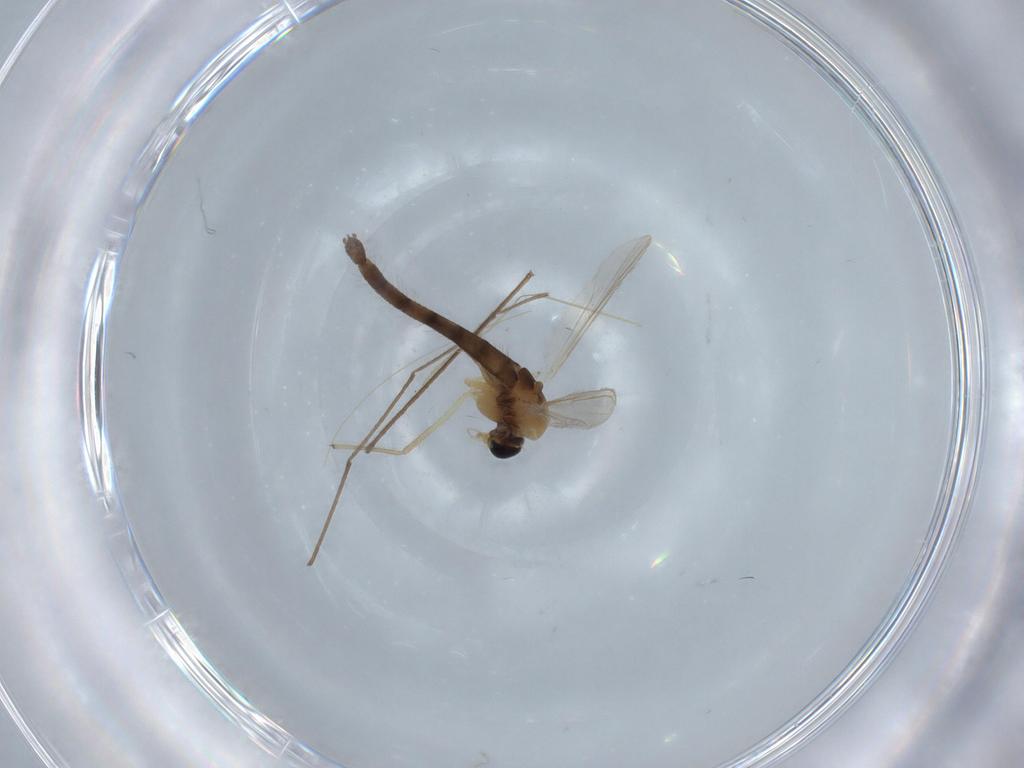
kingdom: Animalia
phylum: Arthropoda
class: Insecta
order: Diptera
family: Chironomidae
